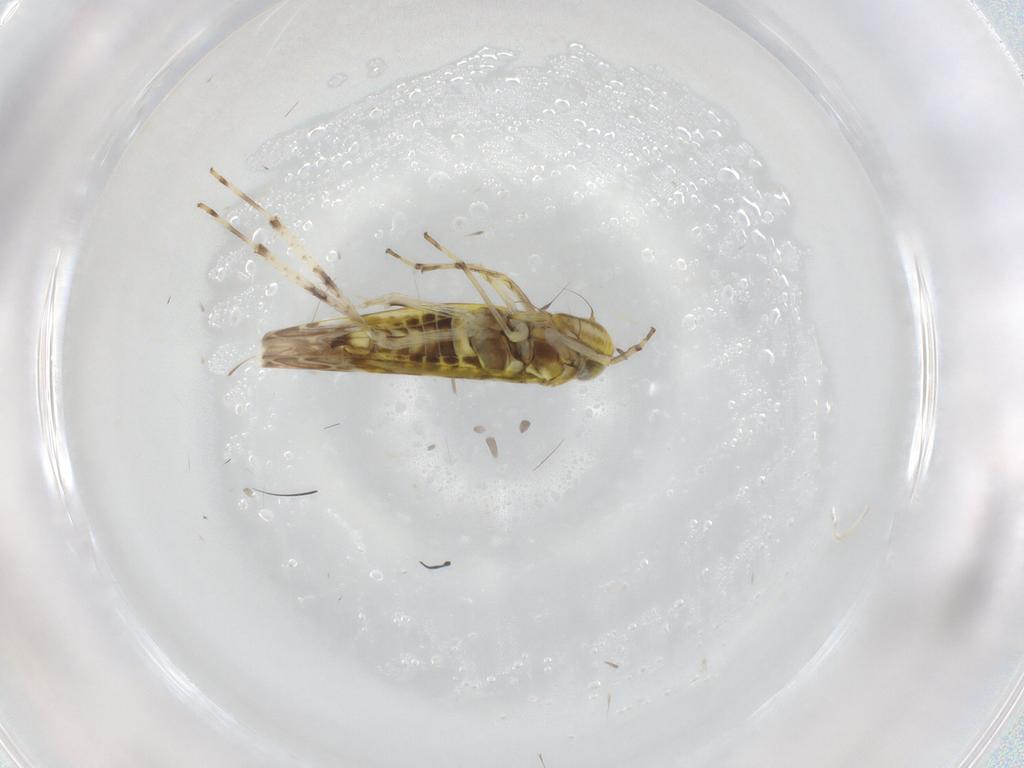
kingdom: Animalia
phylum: Arthropoda
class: Insecta
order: Hemiptera
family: Cicadellidae
